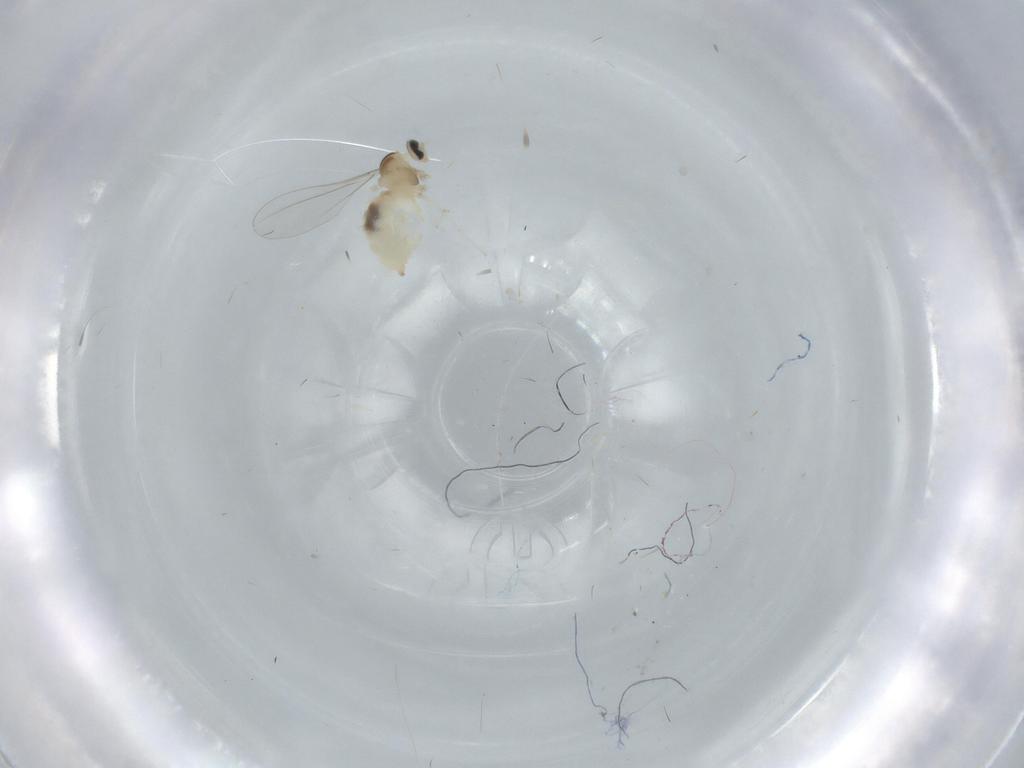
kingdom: Animalia
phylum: Arthropoda
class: Insecta
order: Diptera
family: Cecidomyiidae
